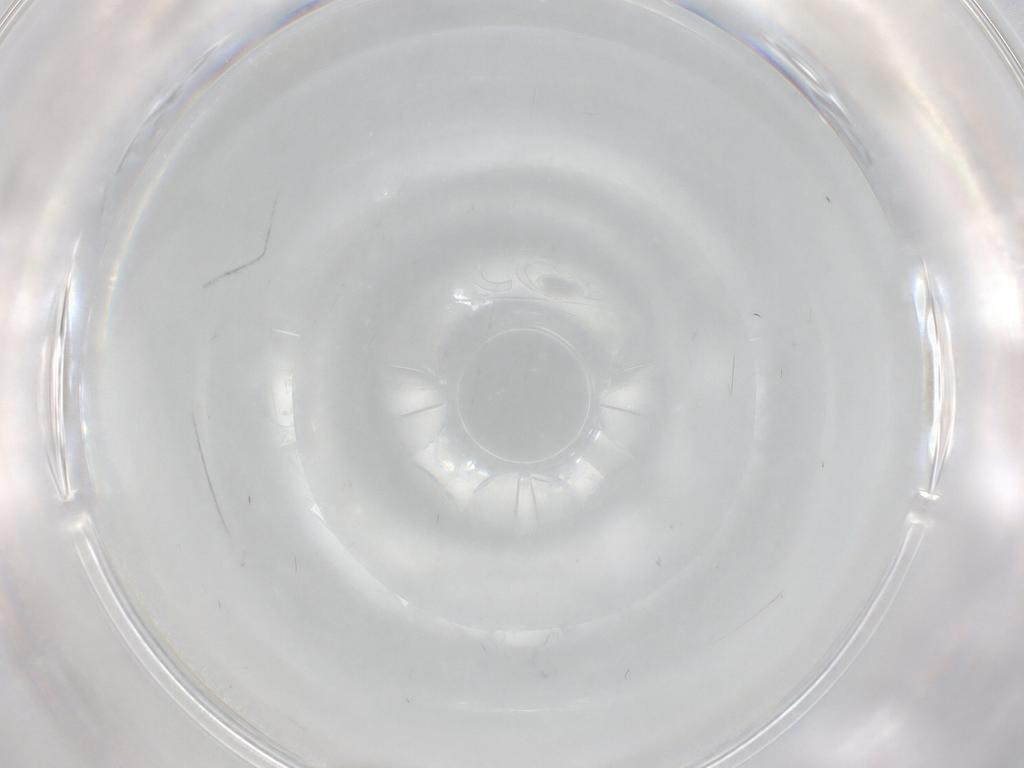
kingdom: Animalia
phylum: Arthropoda
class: Insecta
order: Diptera
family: Psychodidae
